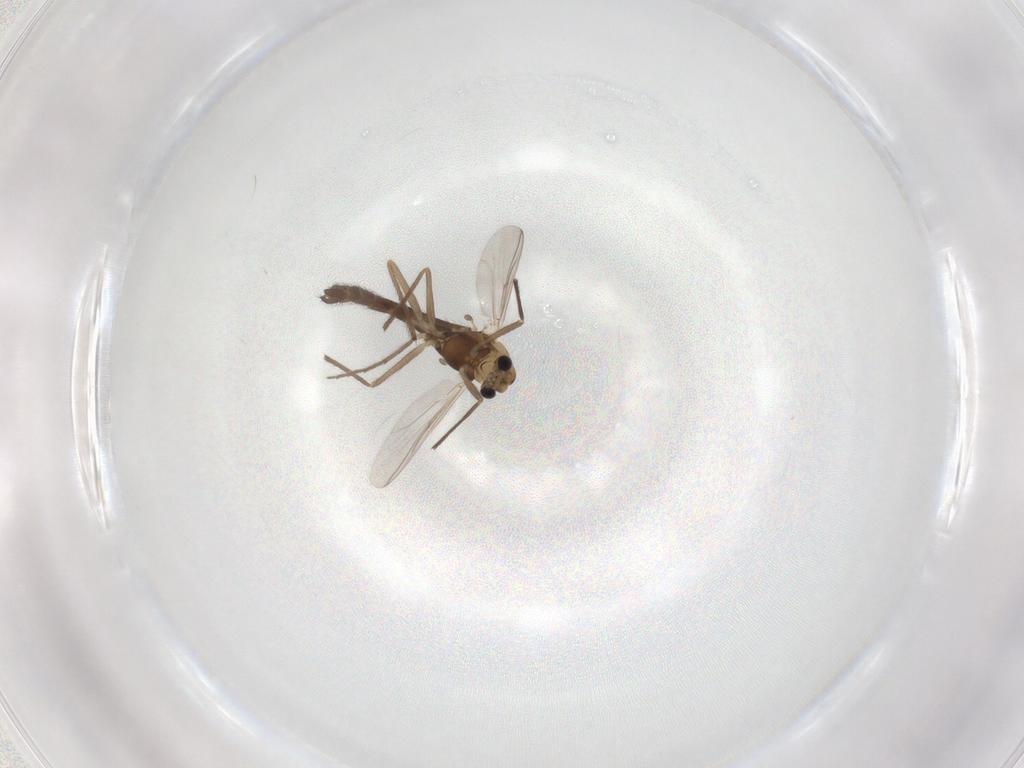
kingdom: Animalia
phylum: Arthropoda
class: Insecta
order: Diptera
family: Chironomidae
